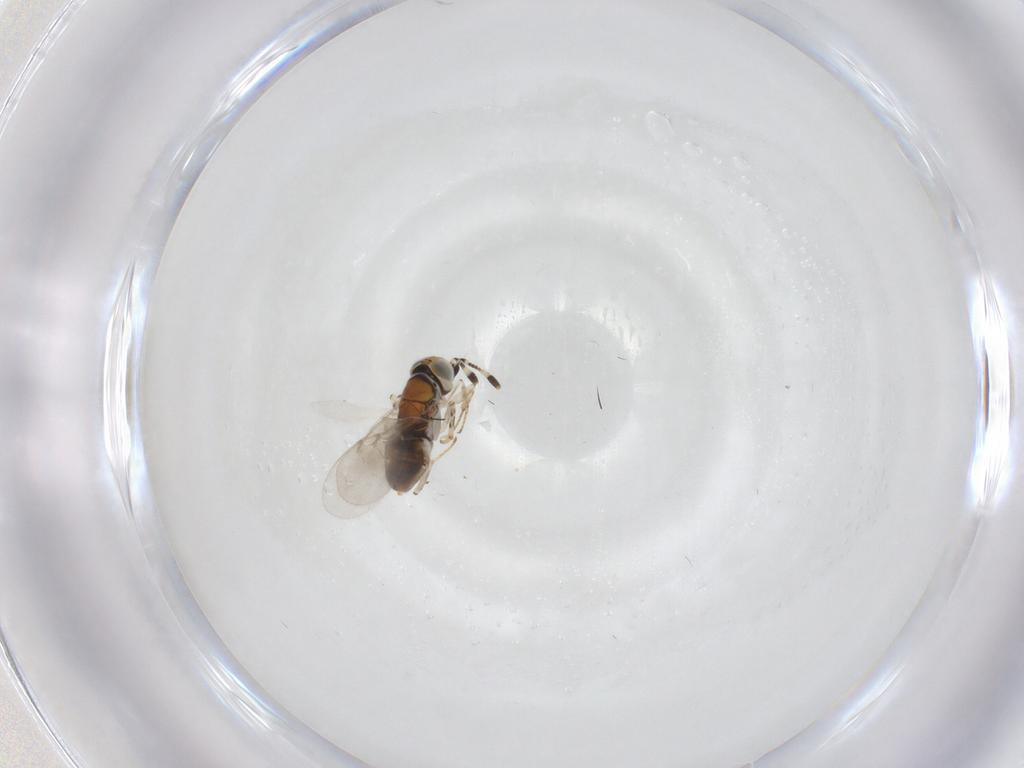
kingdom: Animalia
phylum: Arthropoda
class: Insecta
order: Hymenoptera
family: Encyrtidae
